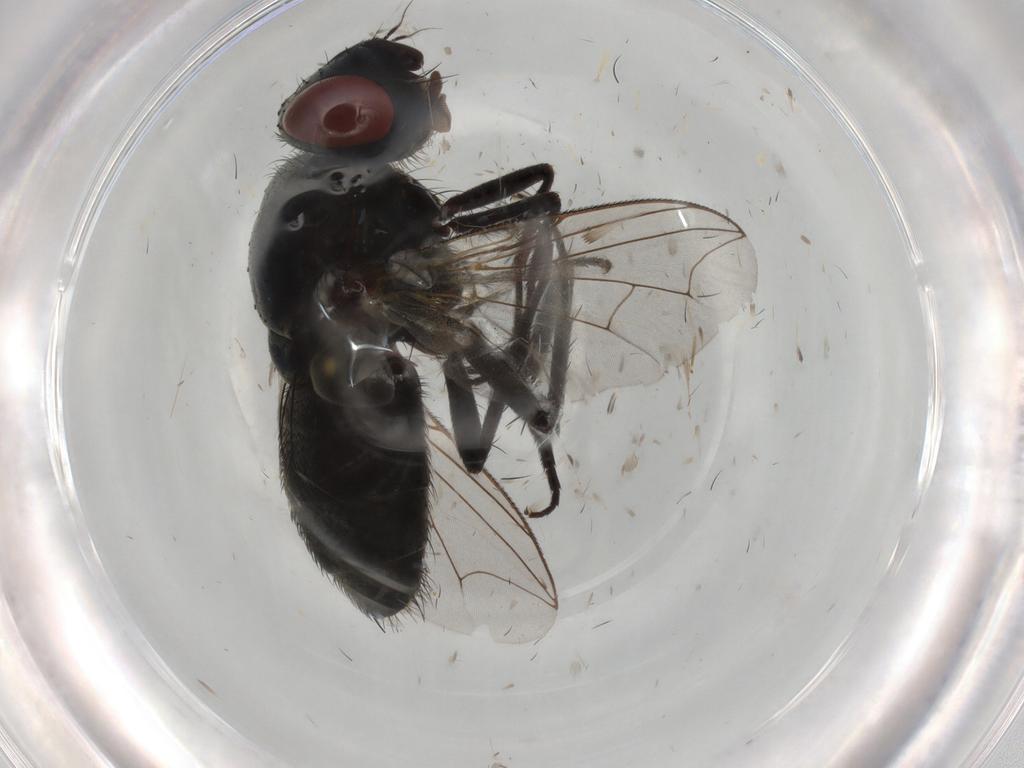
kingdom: Animalia
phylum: Arthropoda
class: Insecta
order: Diptera
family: Sarcophagidae
